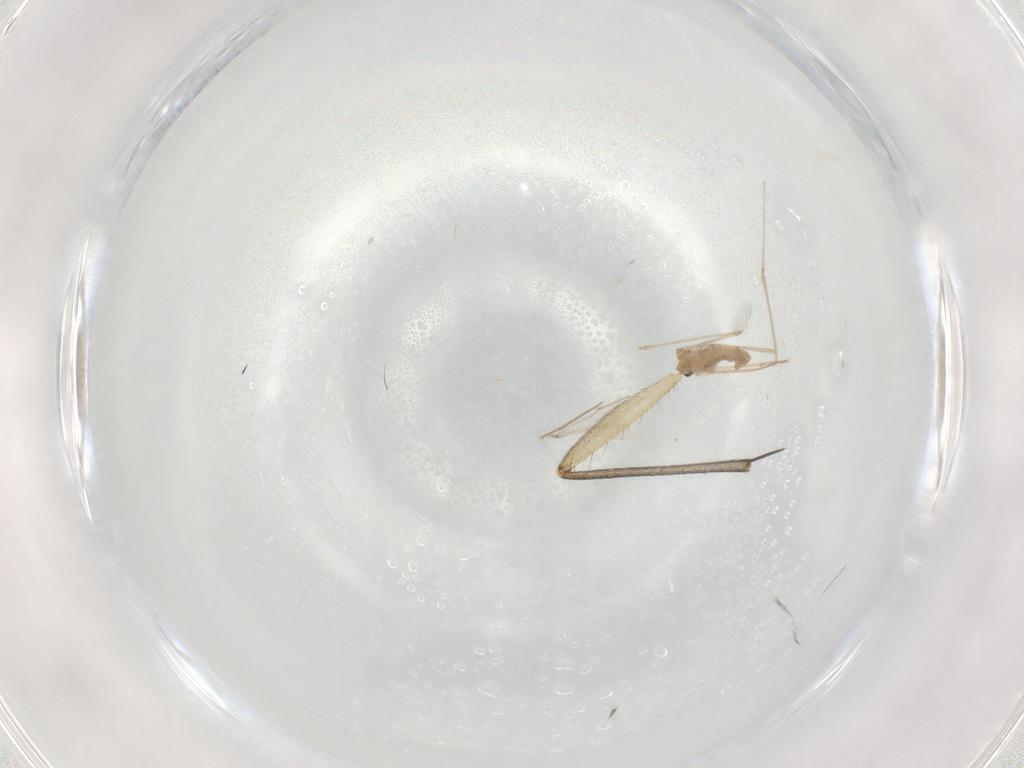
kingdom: Animalia
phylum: Arthropoda
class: Insecta
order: Diptera
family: Mycetophilidae
